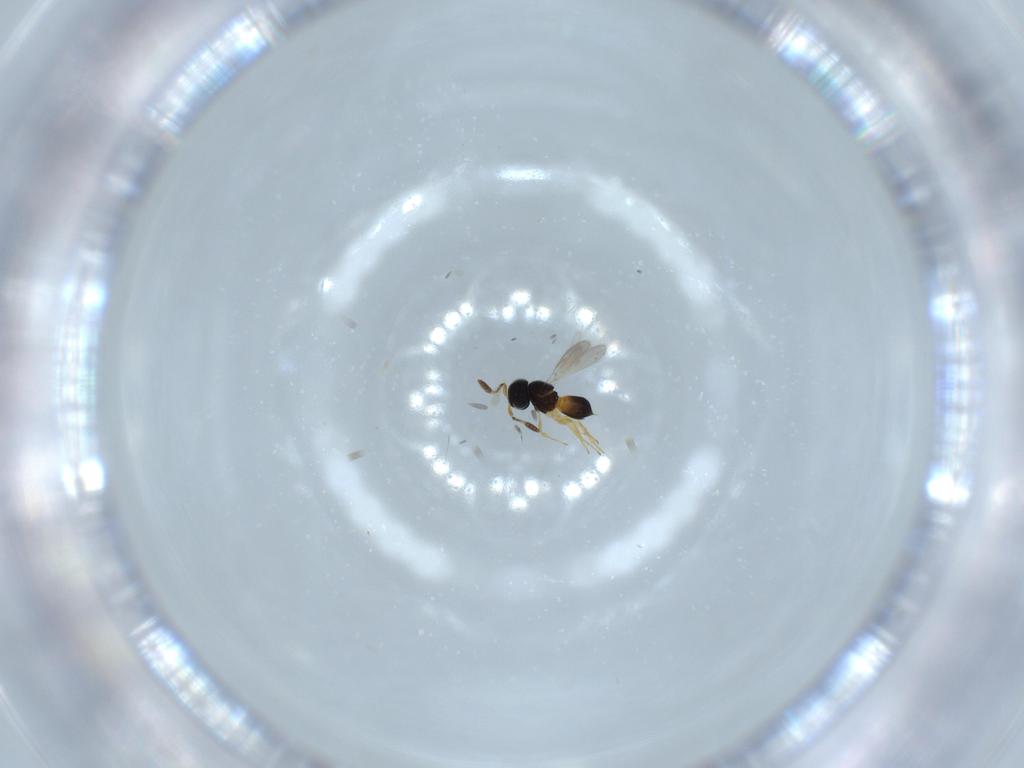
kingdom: Animalia
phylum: Arthropoda
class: Insecta
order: Hymenoptera
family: Scelionidae
